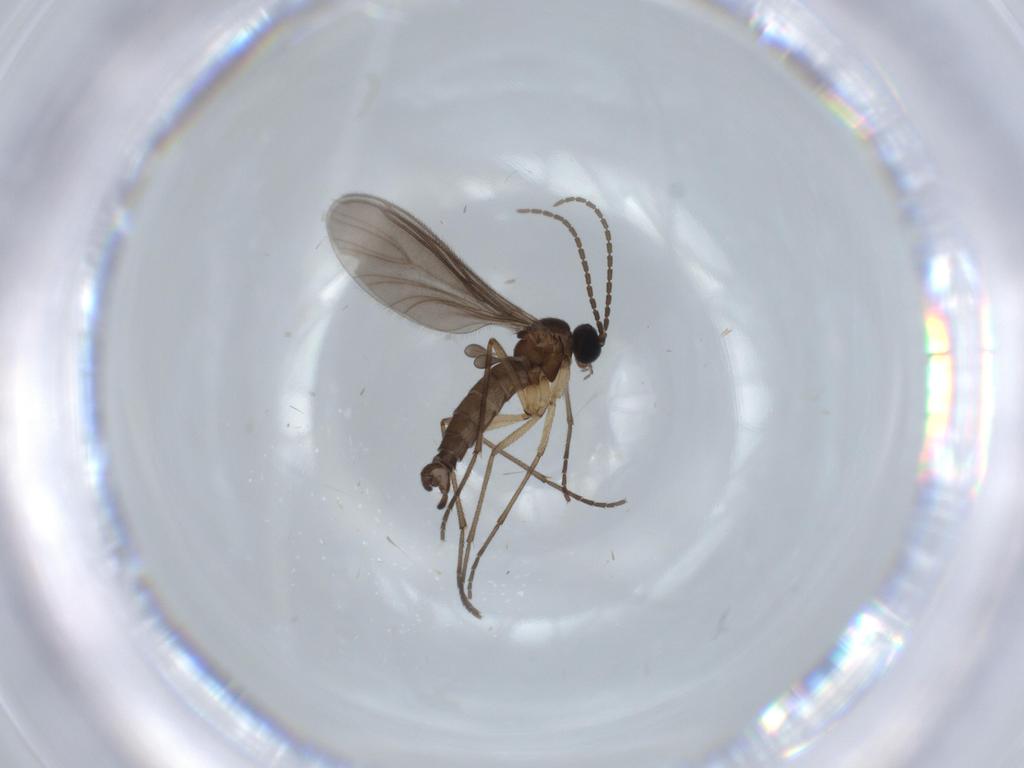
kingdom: Animalia
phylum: Arthropoda
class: Insecta
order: Diptera
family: Sciaridae
